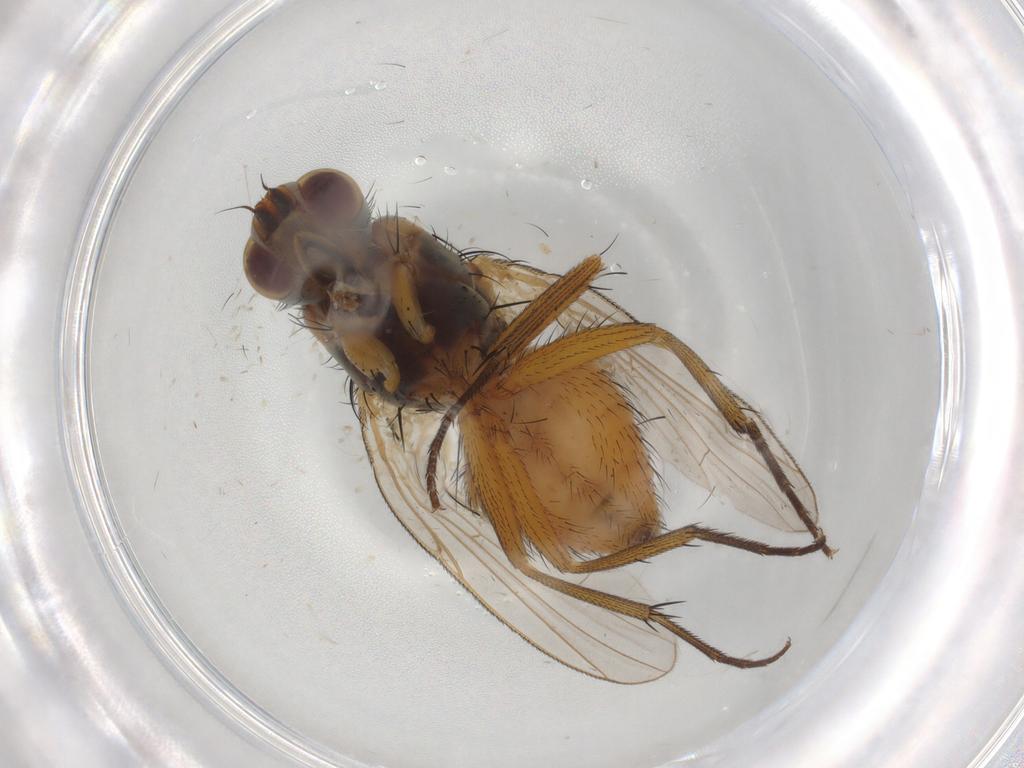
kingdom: Animalia
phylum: Arthropoda
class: Insecta
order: Diptera
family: Muscidae
